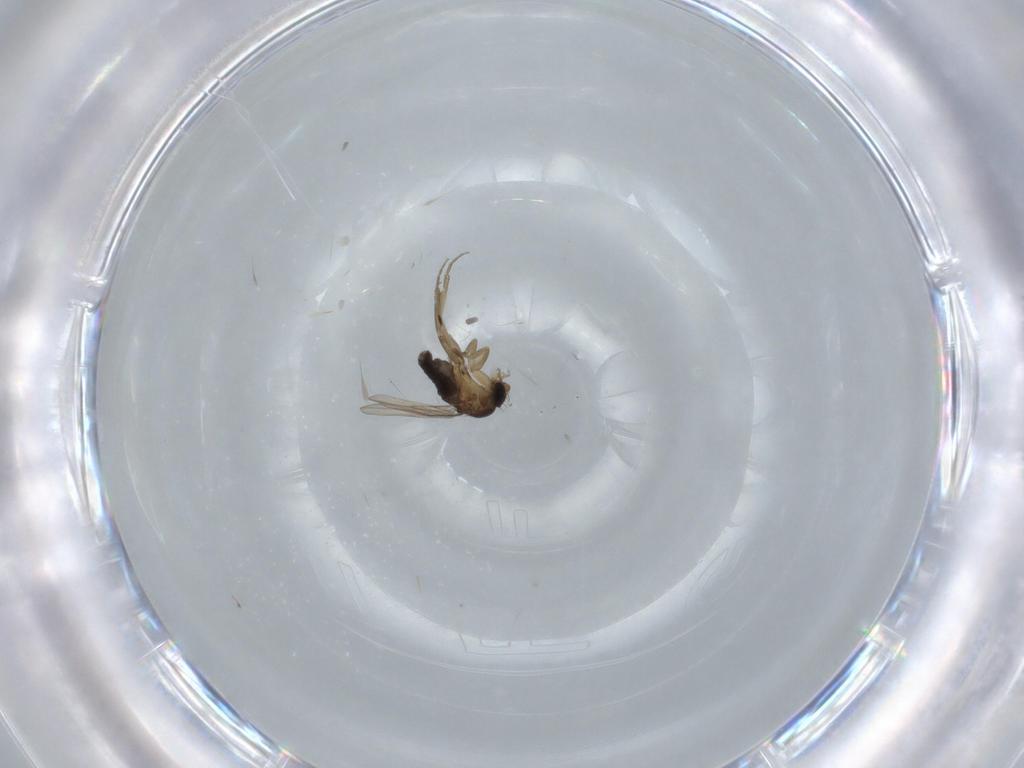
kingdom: Animalia
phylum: Arthropoda
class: Insecta
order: Diptera
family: Phoridae
